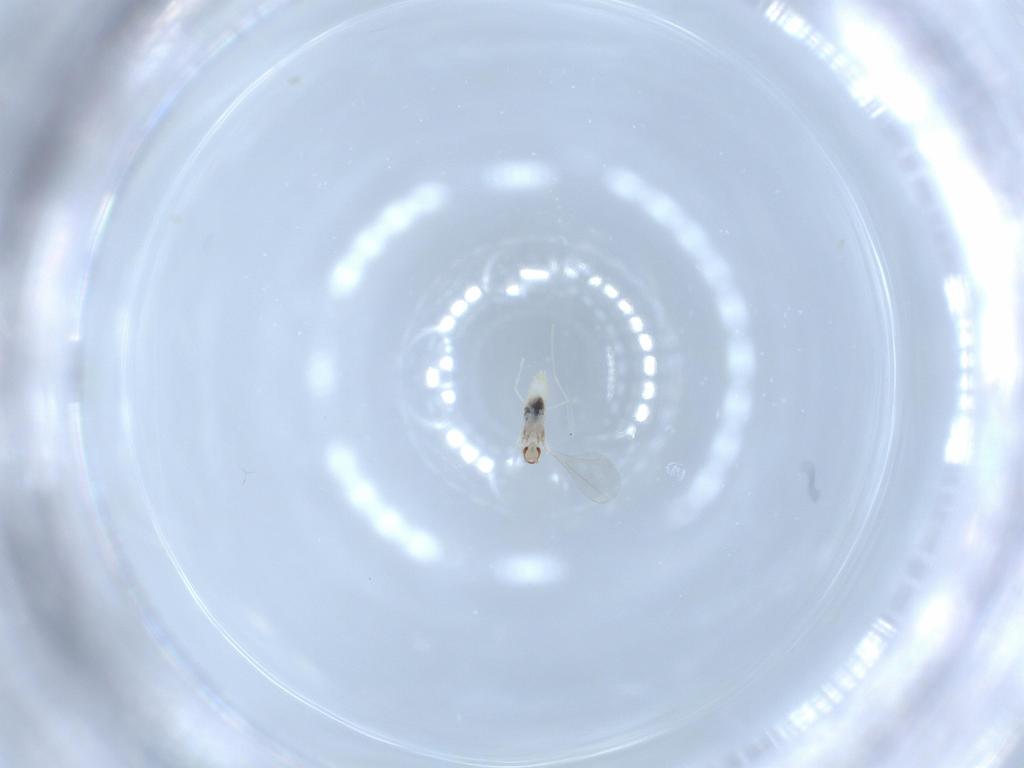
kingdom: Animalia
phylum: Arthropoda
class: Insecta
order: Diptera
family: Cecidomyiidae
